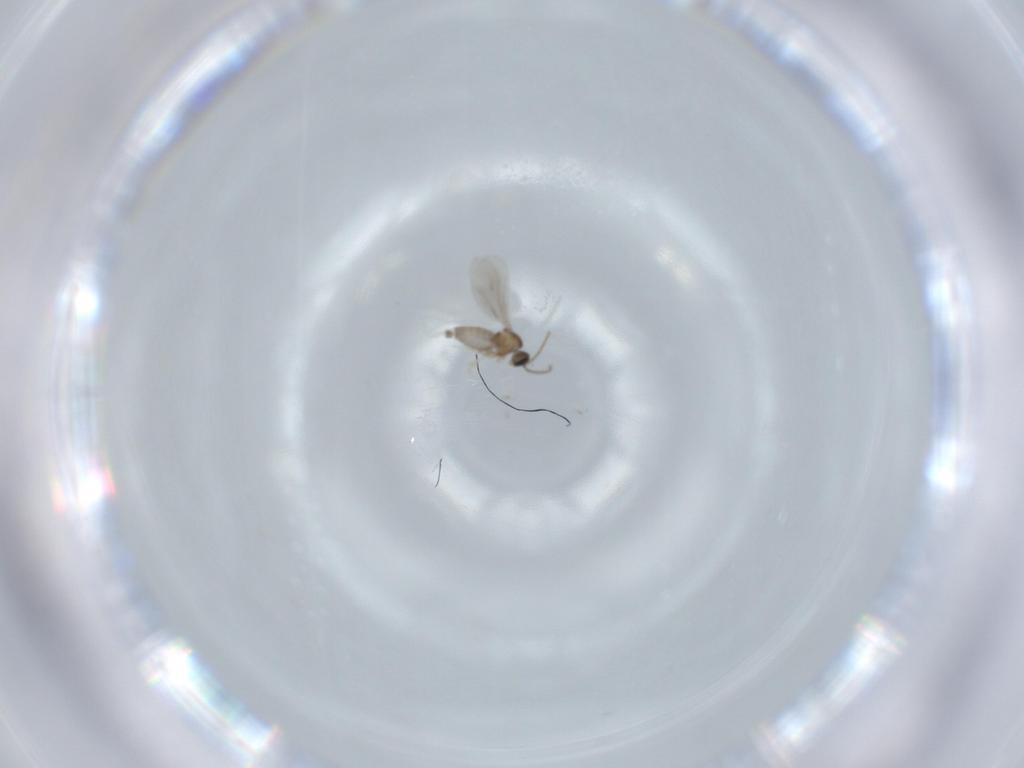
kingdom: Animalia
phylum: Arthropoda
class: Insecta
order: Diptera
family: Cecidomyiidae
